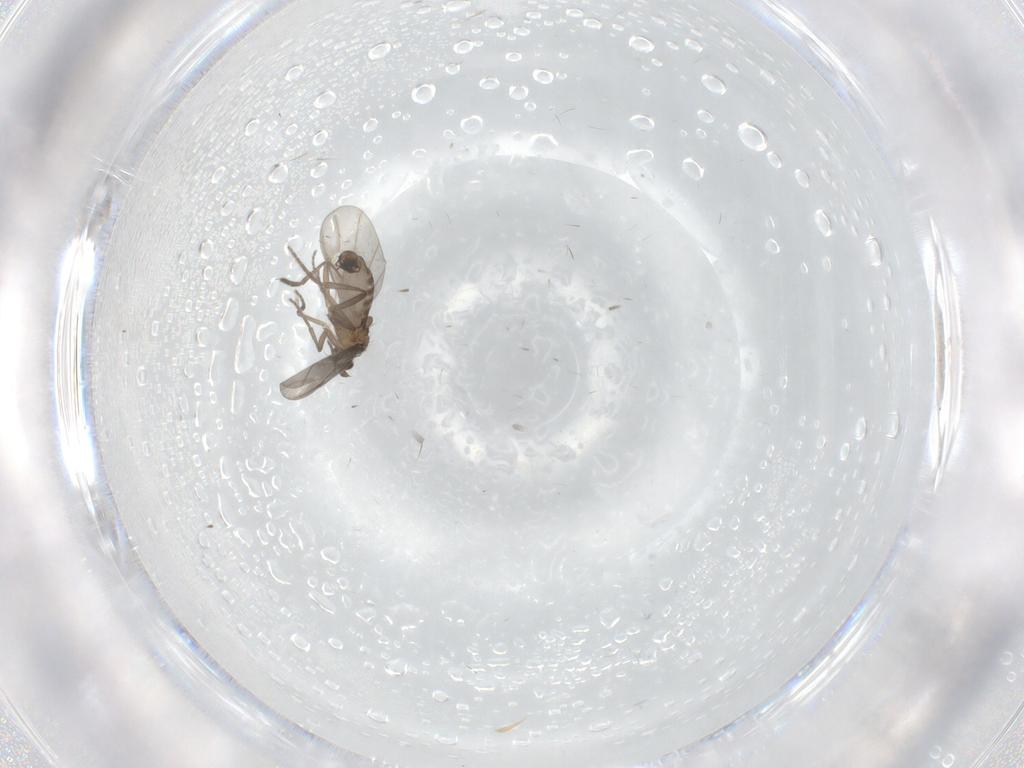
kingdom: Animalia
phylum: Arthropoda
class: Insecta
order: Diptera
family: Phoridae
